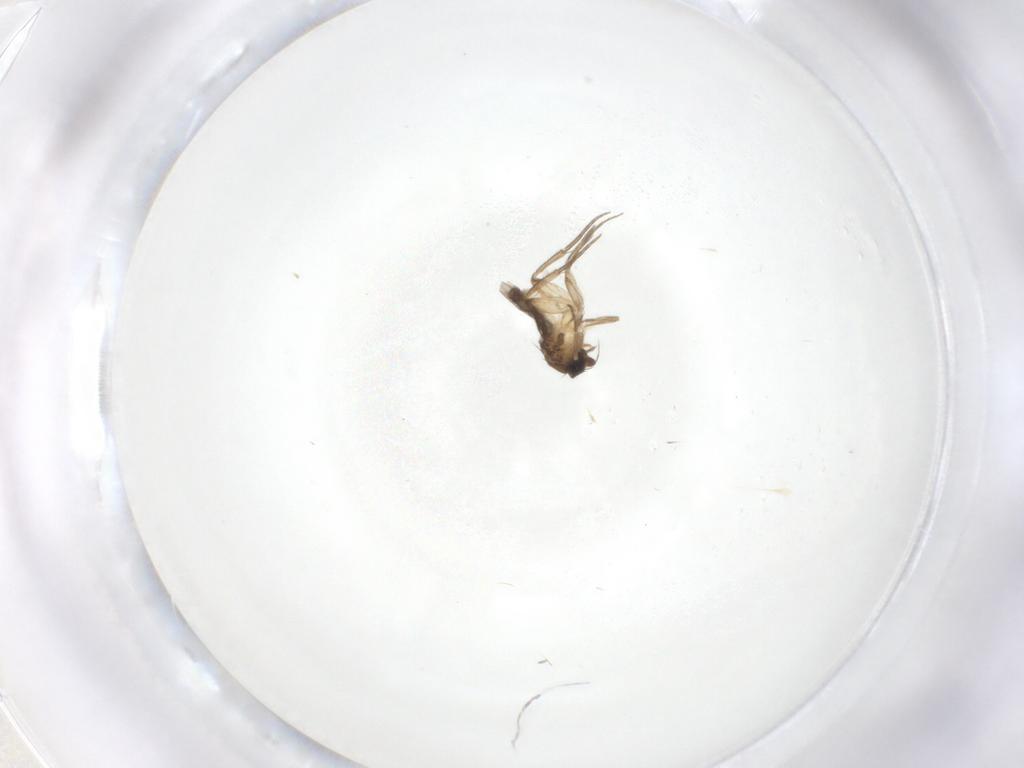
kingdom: Animalia
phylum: Arthropoda
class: Insecta
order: Diptera
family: Phoridae
